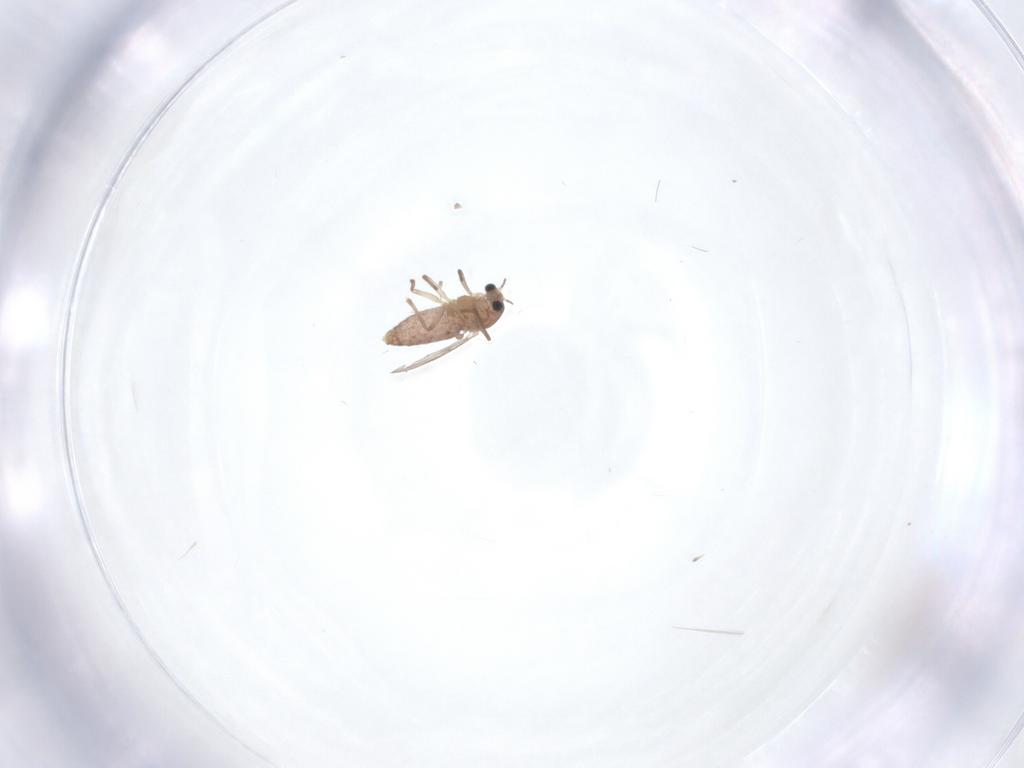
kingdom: Animalia
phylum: Arthropoda
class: Insecta
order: Diptera
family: Chironomidae
